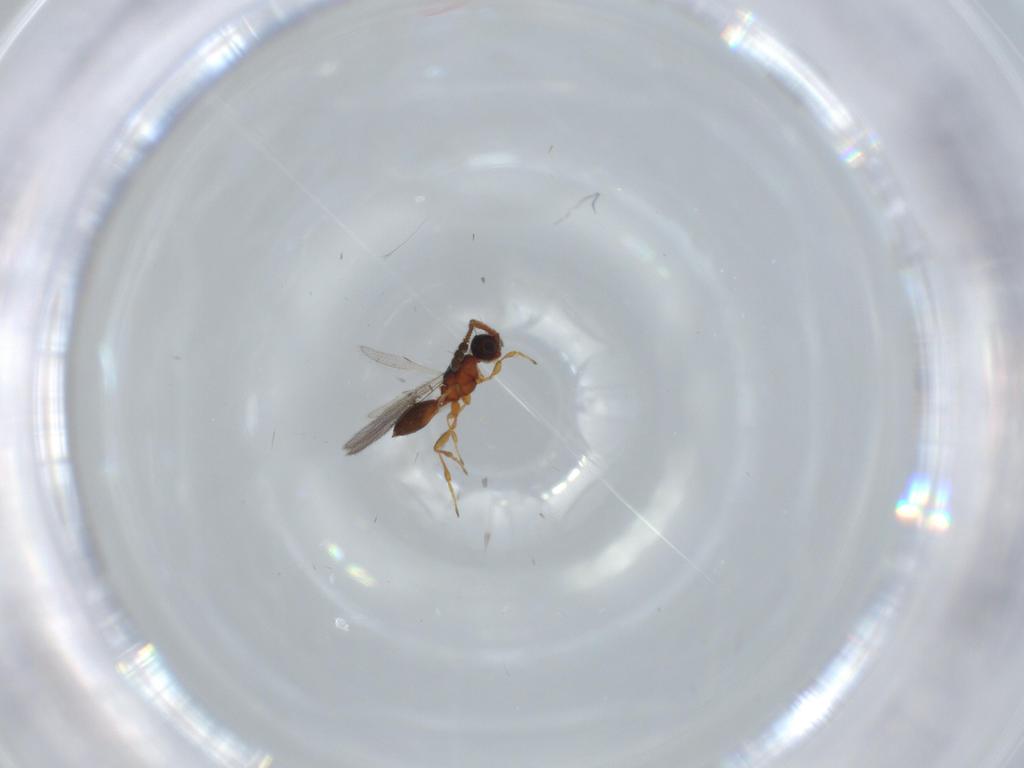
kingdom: Animalia
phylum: Arthropoda
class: Insecta
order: Hymenoptera
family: Diapriidae
